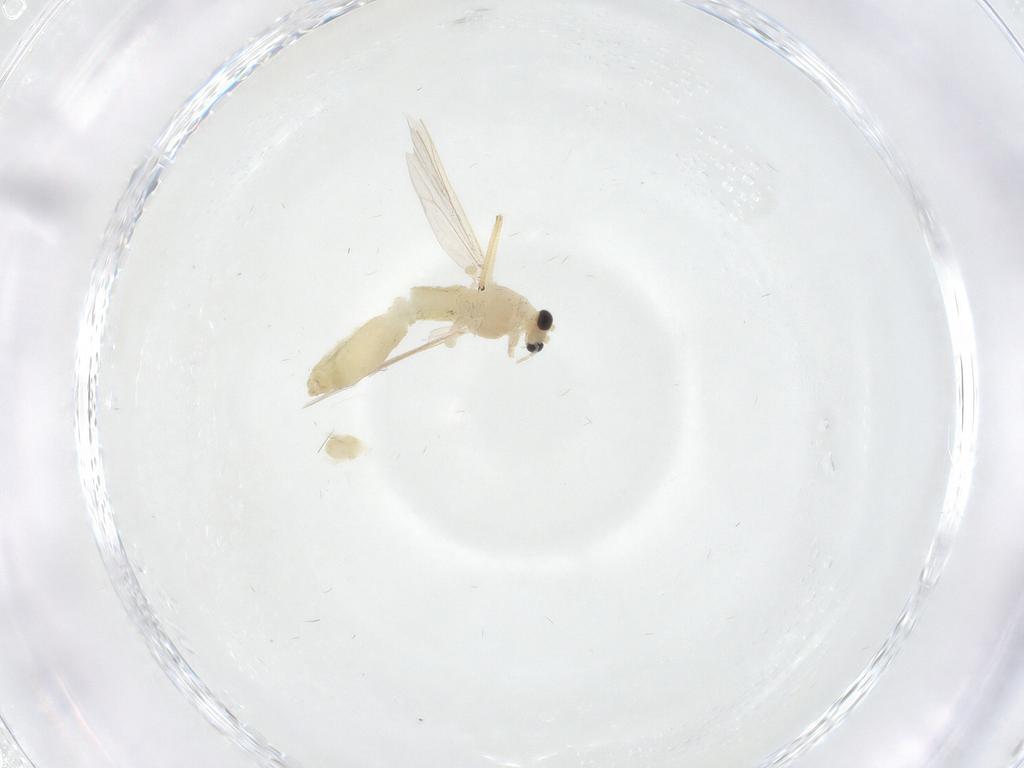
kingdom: Animalia
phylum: Arthropoda
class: Insecta
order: Diptera
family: Chironomidae
